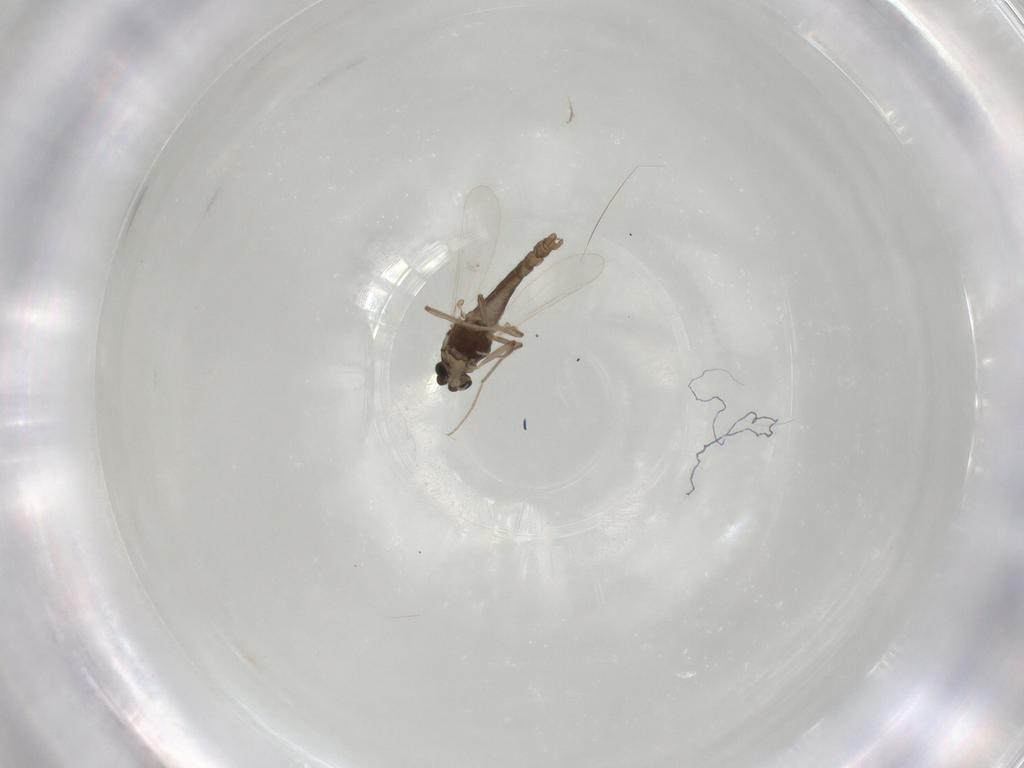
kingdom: Animalia
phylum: Arthropoda
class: Insecta
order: Diptera
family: Chironomidae
